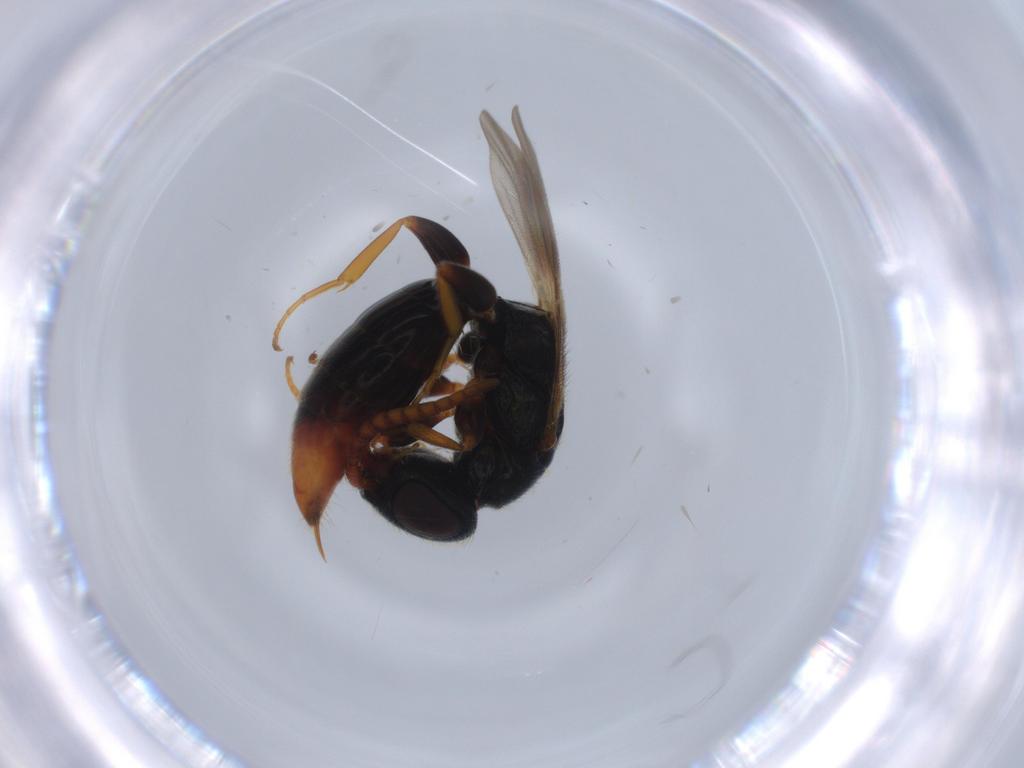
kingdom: Animalia
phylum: Arthropoda
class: Insecta
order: Hymenoptera
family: Bethylidae
